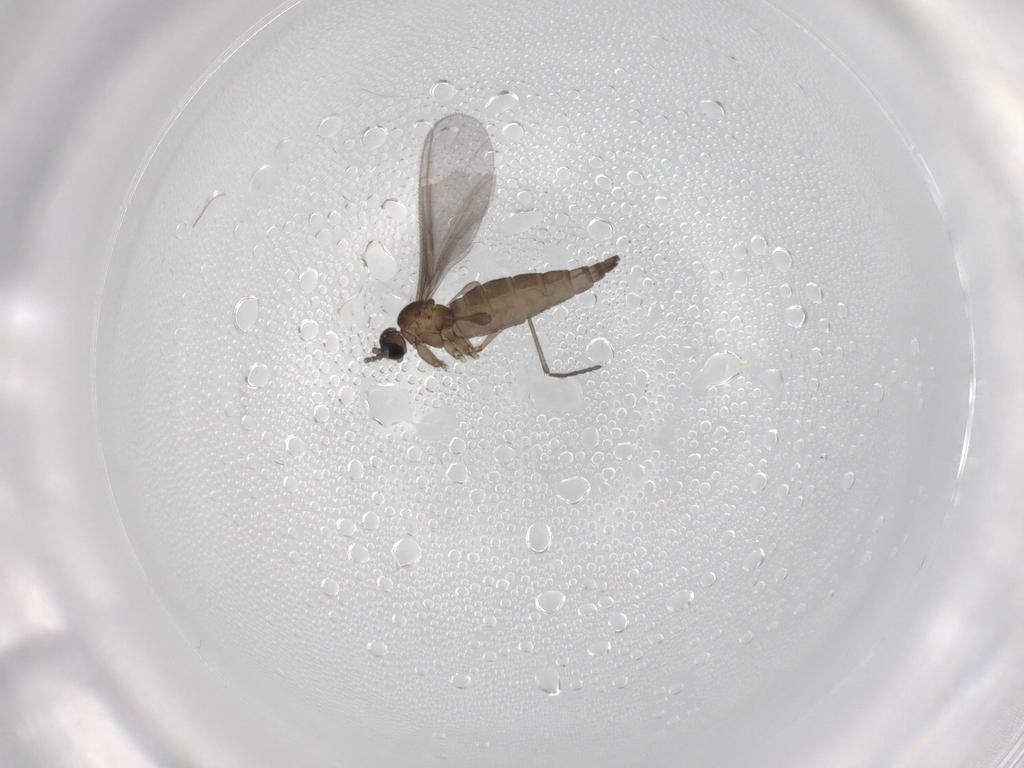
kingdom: Animalia
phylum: Arthropoda
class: Insecta
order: Diptera
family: Sciaridae
